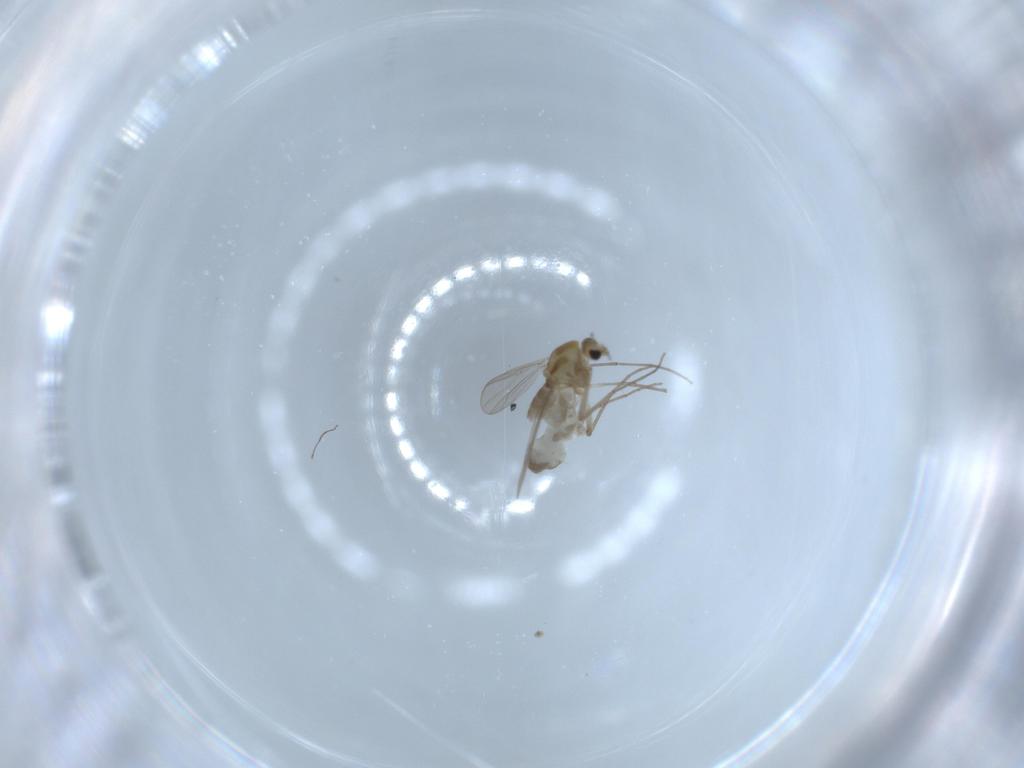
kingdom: Animalia
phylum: Arthropoda
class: Insecta
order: Diptera
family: Chironomidae
